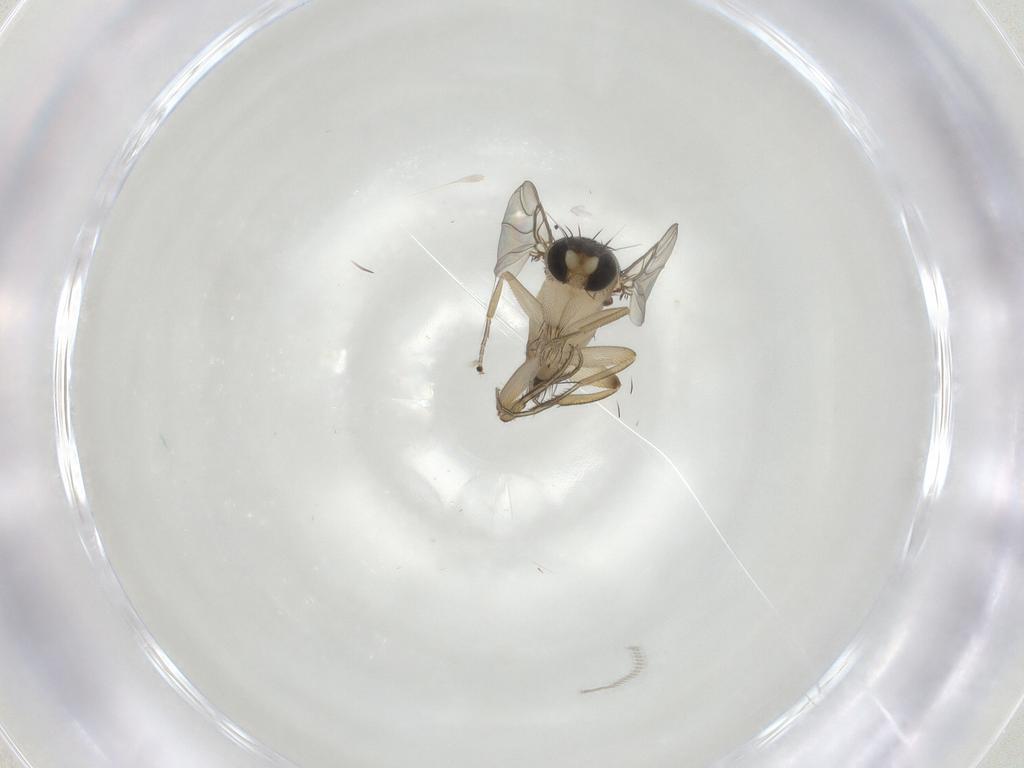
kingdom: Animalia
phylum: Arthropoda
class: Insecta
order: Diptera
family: Phoridae
